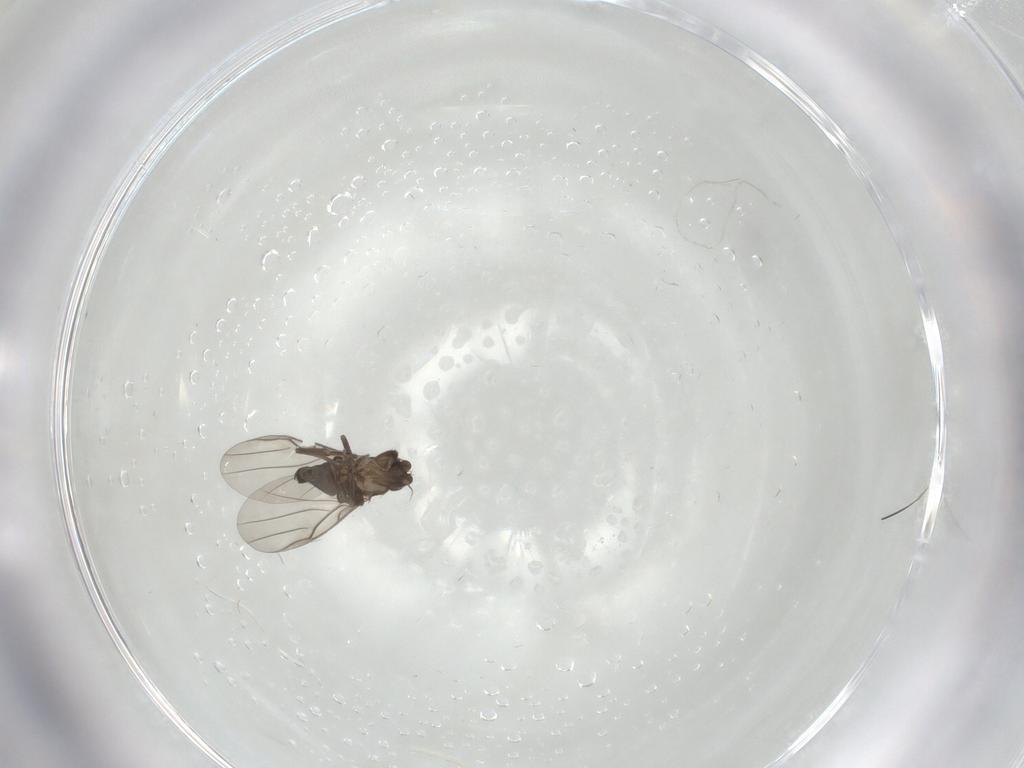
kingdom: Animalia
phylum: Arthropoda
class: Insecta
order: Diptera
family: Phoridae
